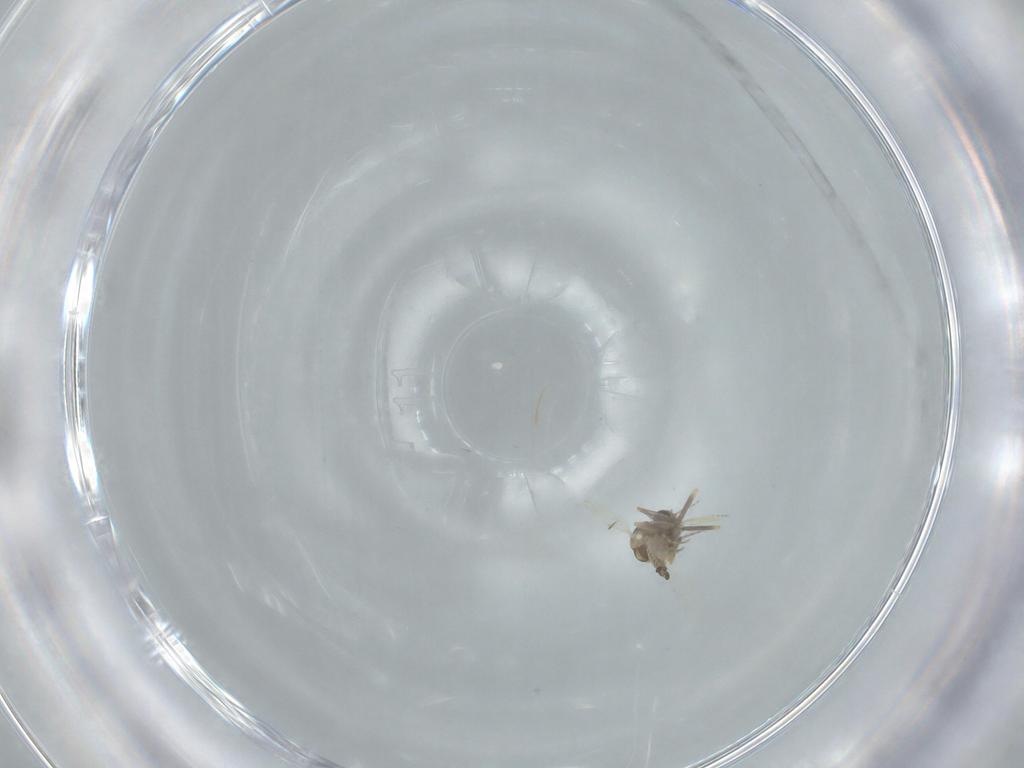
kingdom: Animalia
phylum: Arthropoda
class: Insecta
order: Diptera
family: Ceratopogonidae
